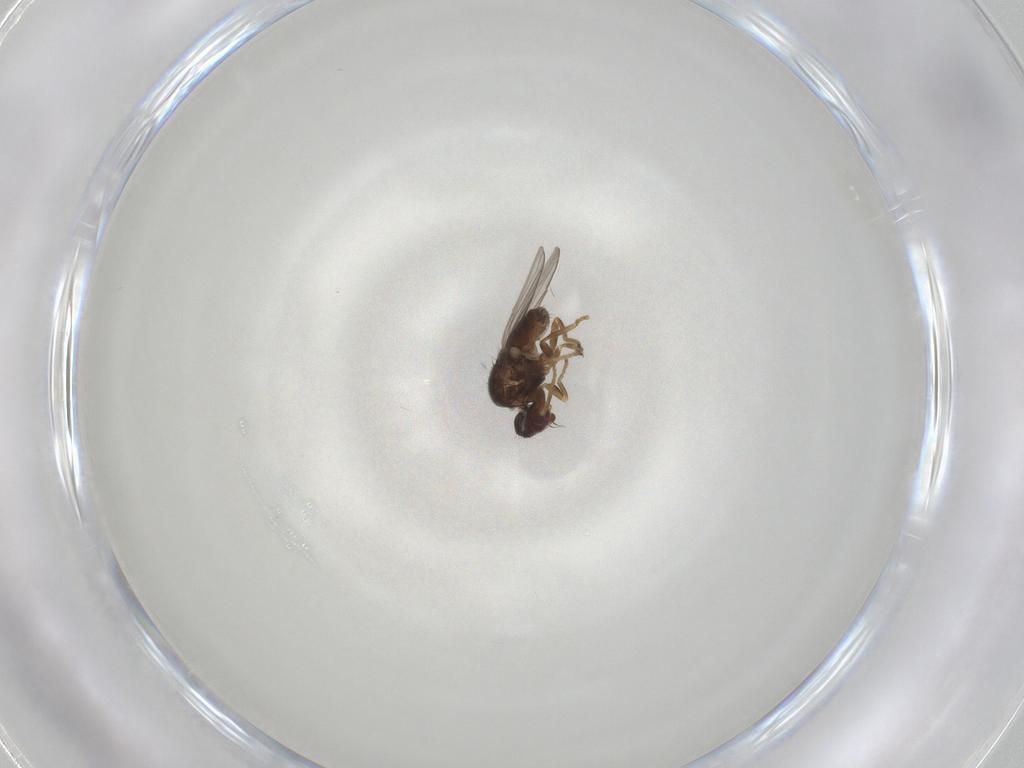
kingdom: Animalia
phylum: Arthropoda
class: Insecta
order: Diptera
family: Chloropidae
